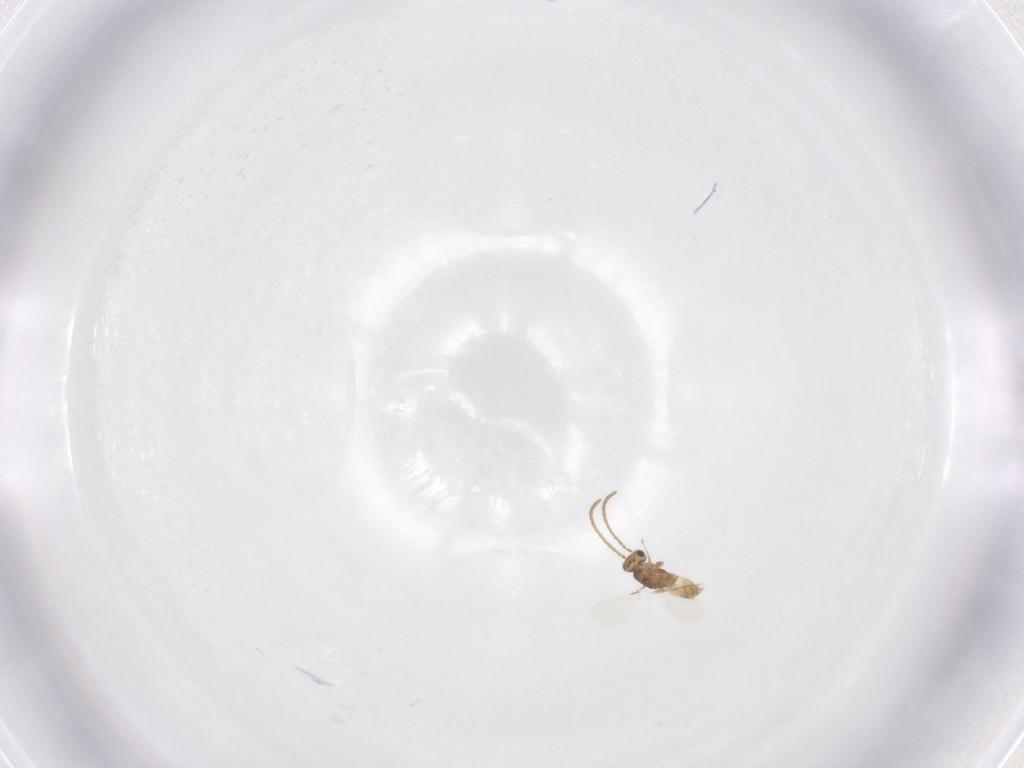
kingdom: Animalia
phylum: Arthropoda
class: Insecta
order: Hymenoptera
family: Mymaridae
